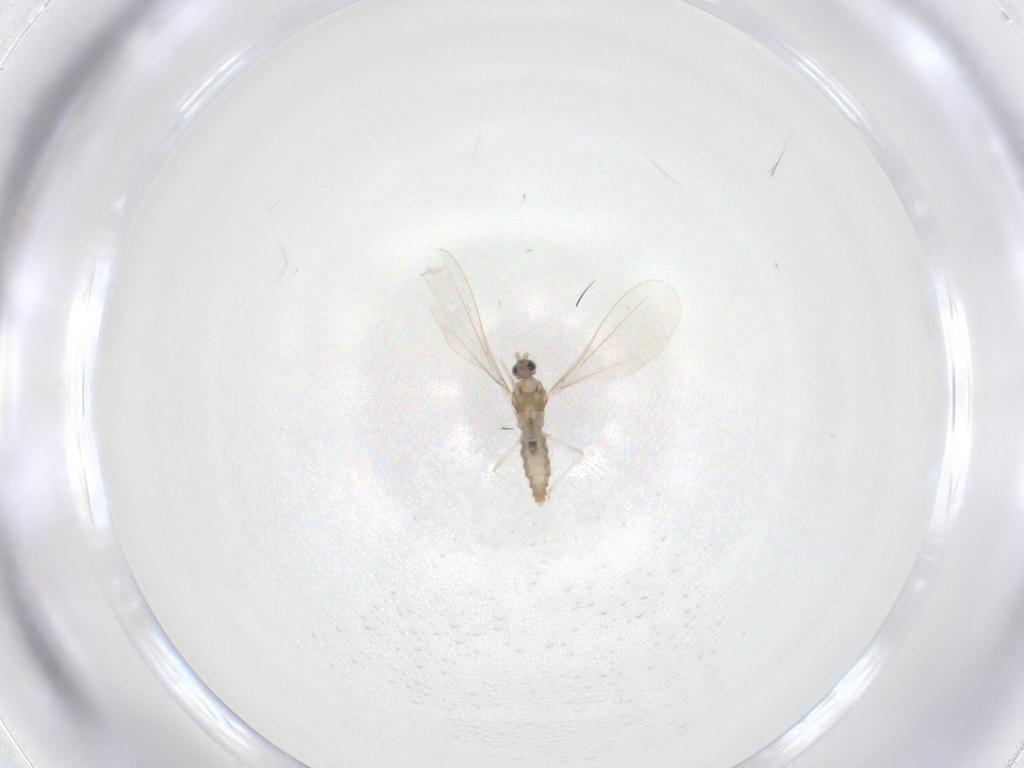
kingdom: Animalia
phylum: Arthropoda
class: Insecta
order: Diptera
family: Cecidomyiidae
